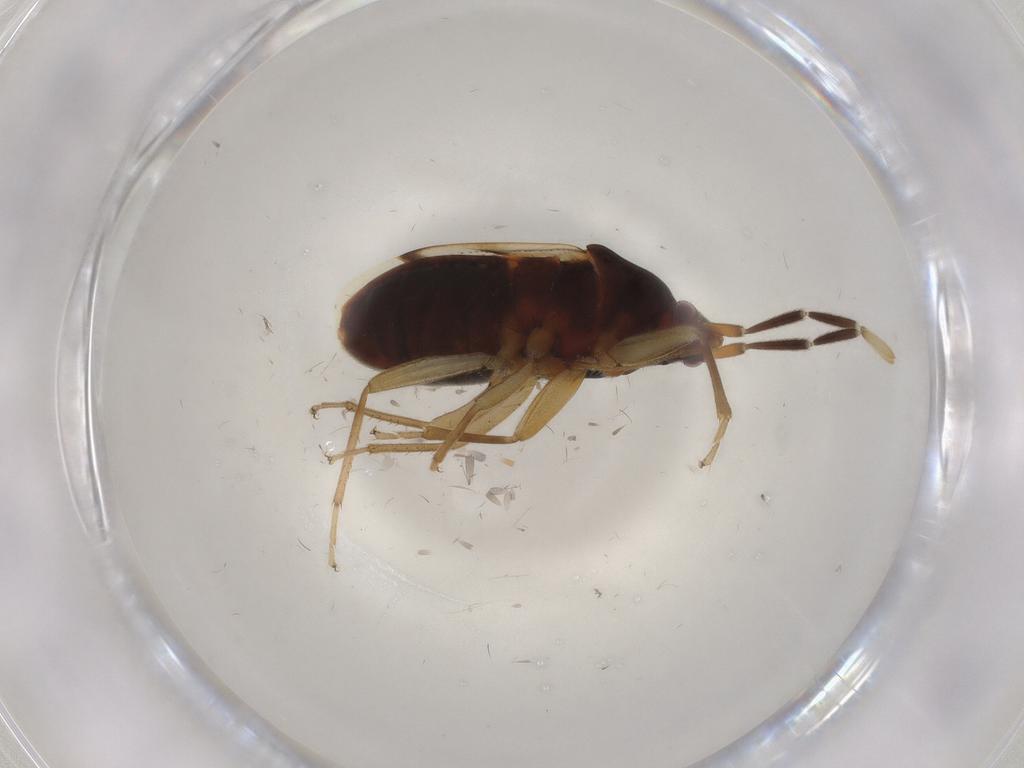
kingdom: Animalia
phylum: Arthropoda
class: Insecta
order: Hemiptera
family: Rhyparochromidae
